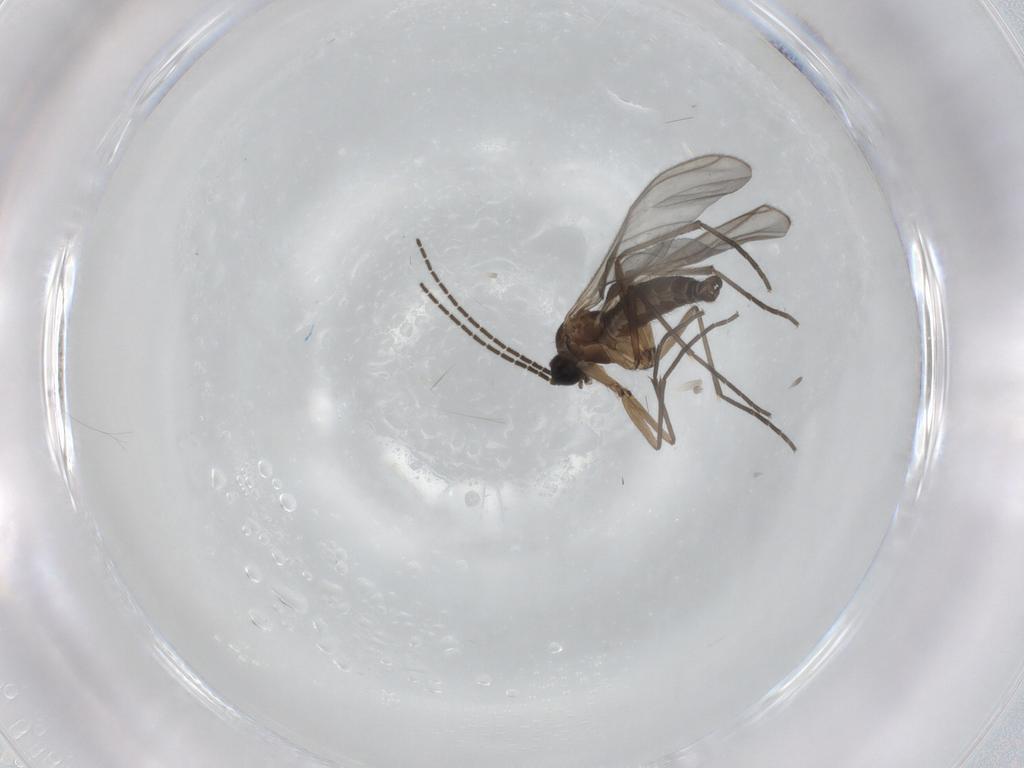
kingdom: Animalia
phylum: Arthropoda
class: Insecta
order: Diptera
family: Sciaridae
